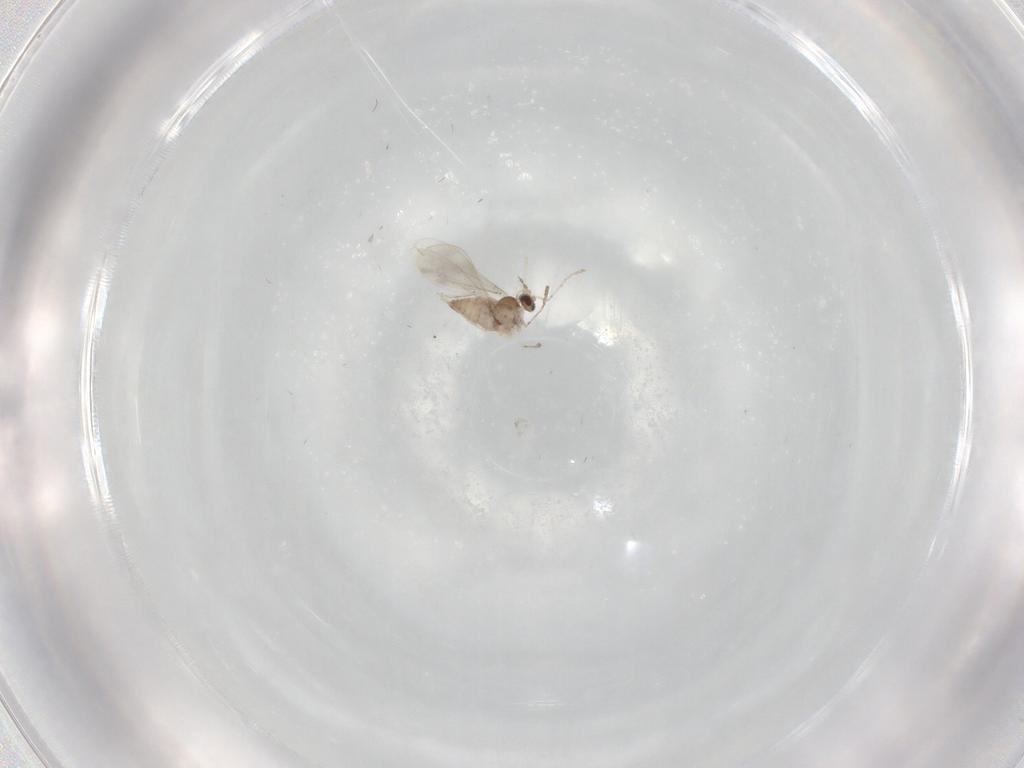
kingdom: Animalia
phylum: Arthropoda
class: Insecta
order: Diptera
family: Cecidomyiidae
